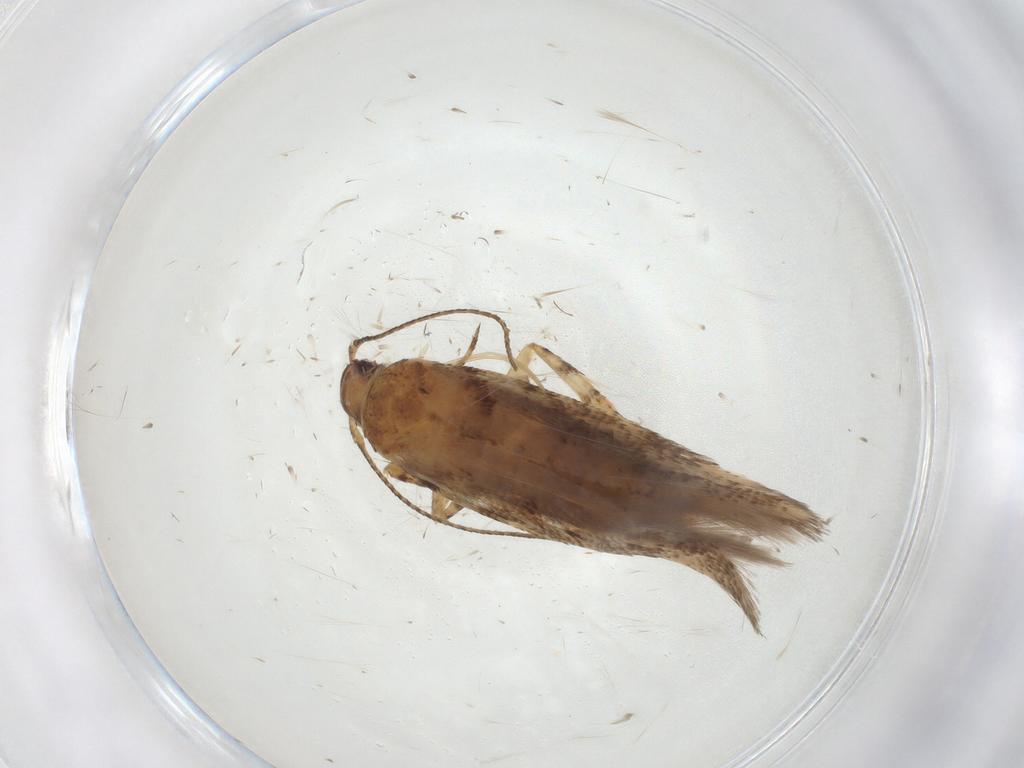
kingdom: Animalia
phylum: Arthropoda
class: Insecta
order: Lepidoptera
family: Gelechiidae
